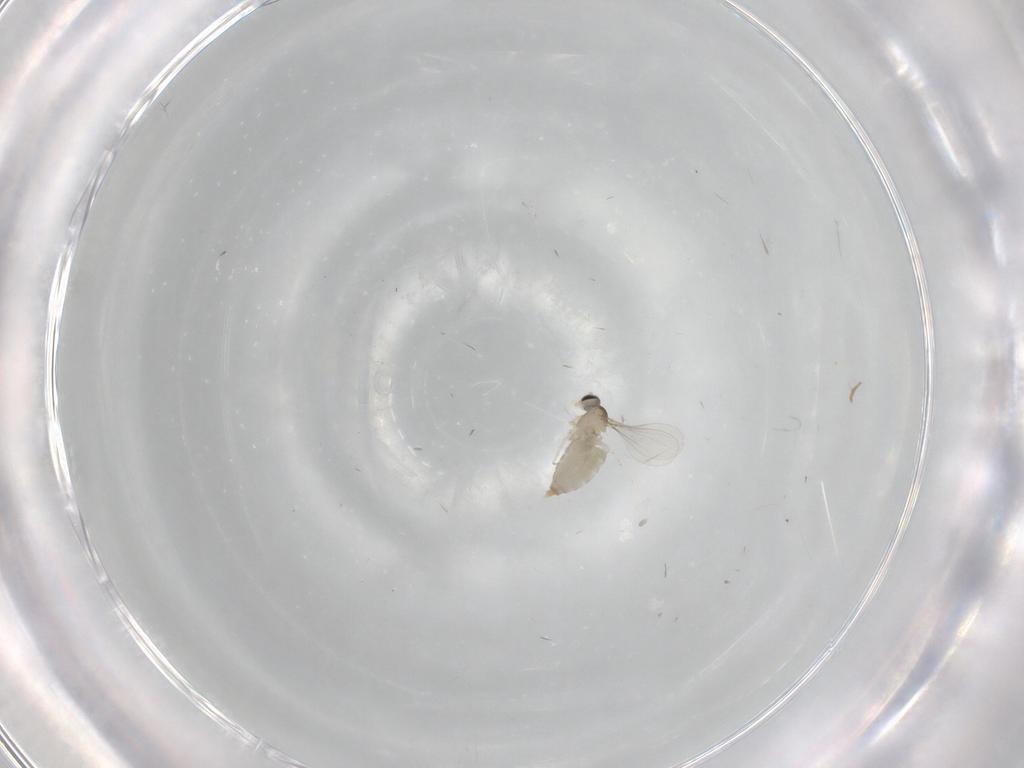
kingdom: Animalia
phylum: Arthropoda
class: Insecta
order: Diptera
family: Cecidomyiidae
